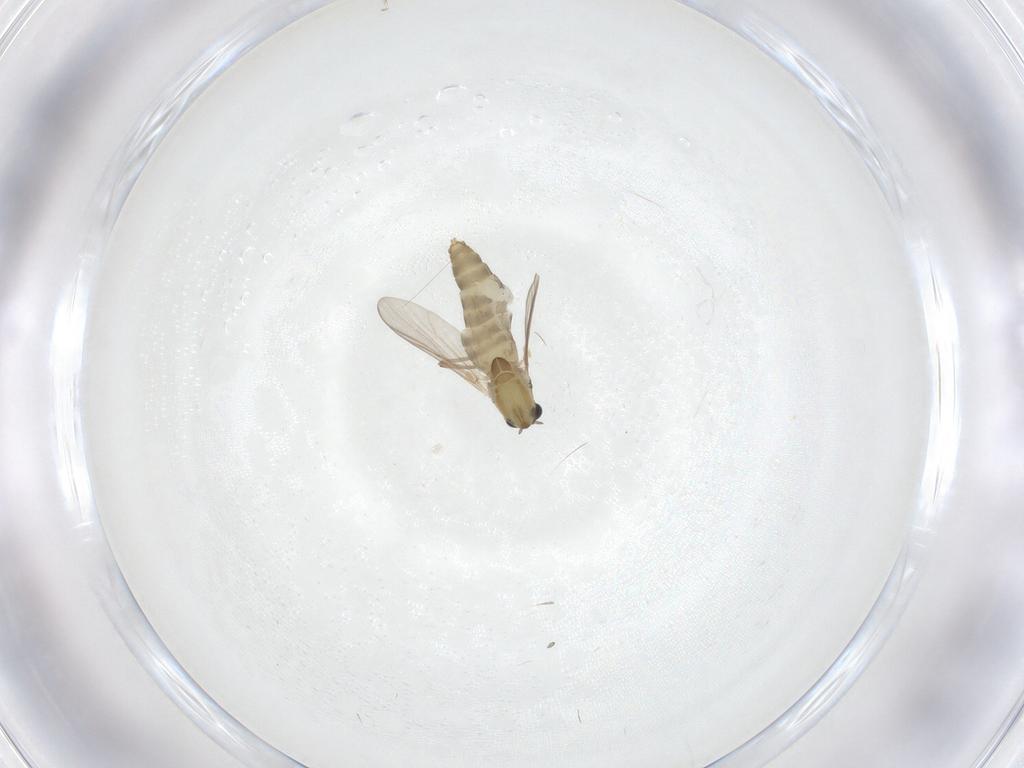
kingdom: Animalia
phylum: Arthropoda
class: Insecta
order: Diptera
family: Chironomidae
